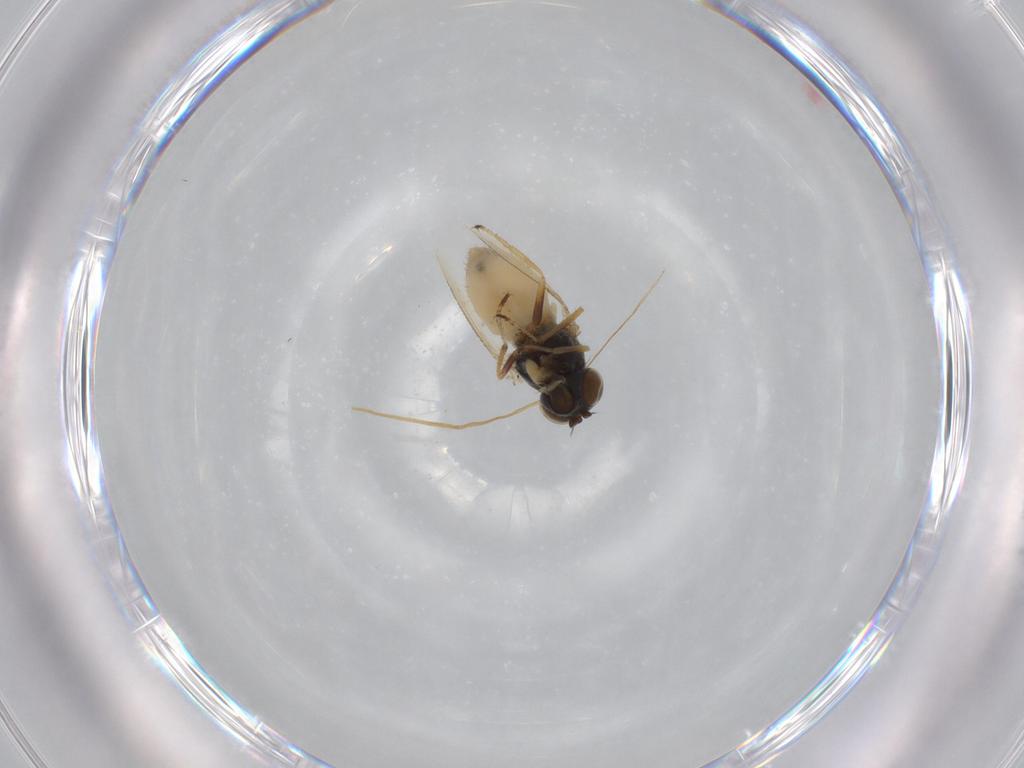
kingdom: Animalia
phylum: Arthropoda
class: Insecta
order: Diptera
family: Ephydridae
